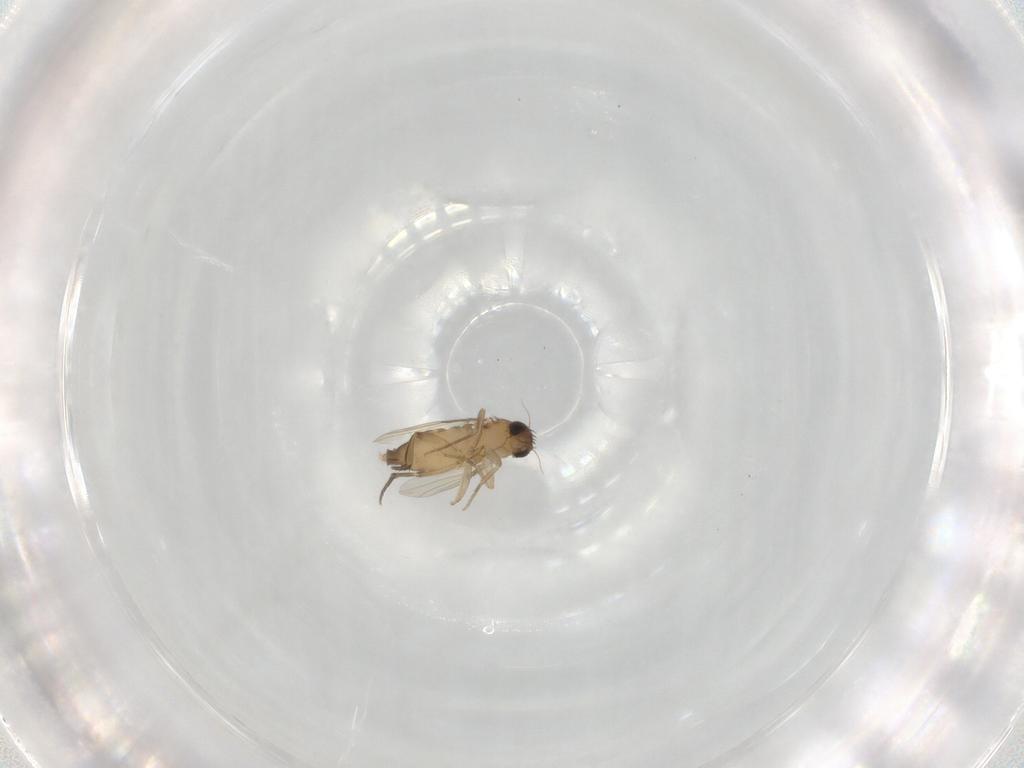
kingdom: Animalia
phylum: Arthropoda
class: Insecta
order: Diptera
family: Phoridae
